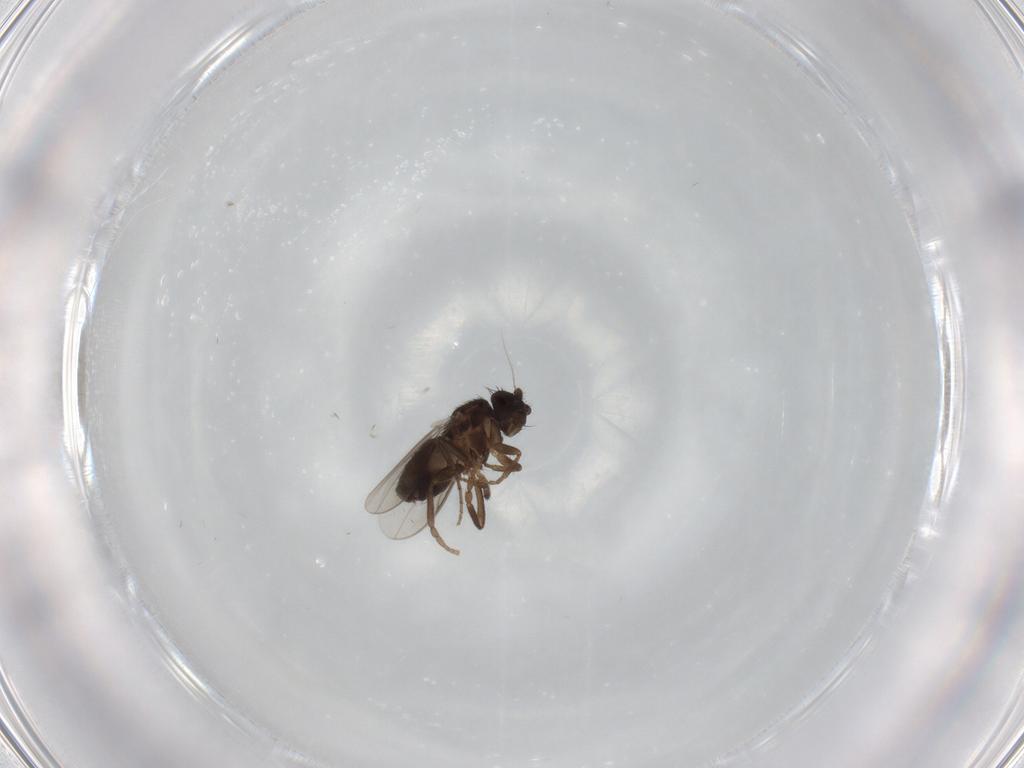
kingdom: Animalia
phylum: Arthropoda
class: Insecta
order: Diptera
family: Sphaeroceridae
